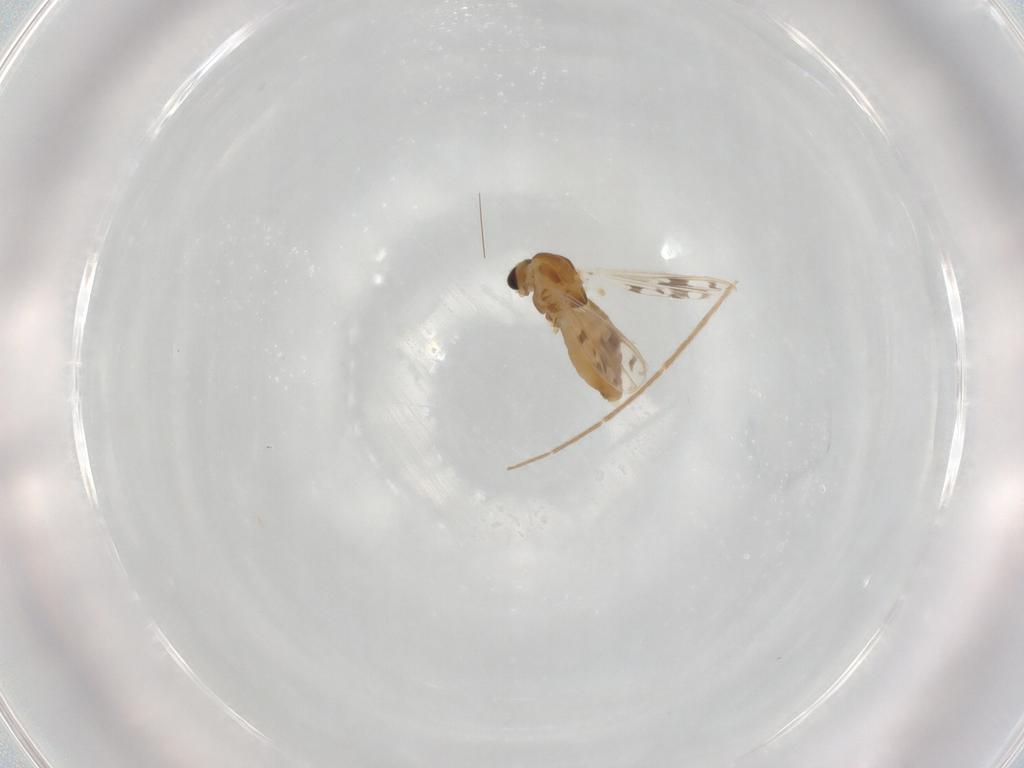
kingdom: Animalia
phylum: Arthropoda
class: Insecta
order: Diptera
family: Chironomidae
